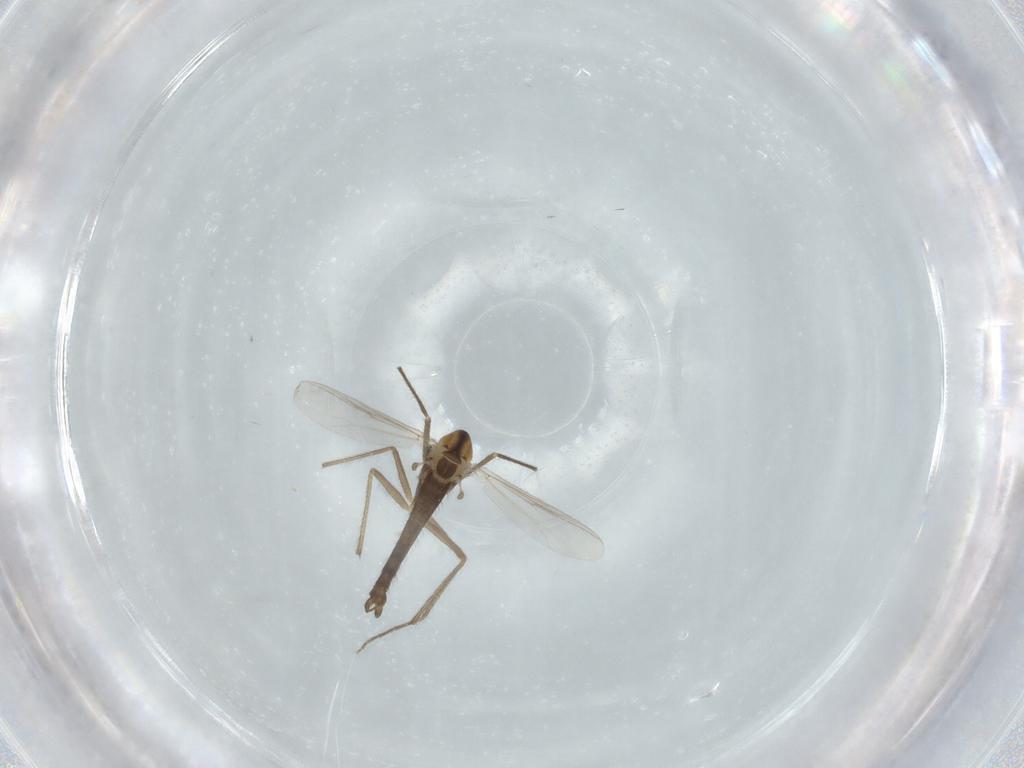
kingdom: Animalia
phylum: Arthropoda
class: Insecta
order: Diptera
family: Chironomidae
